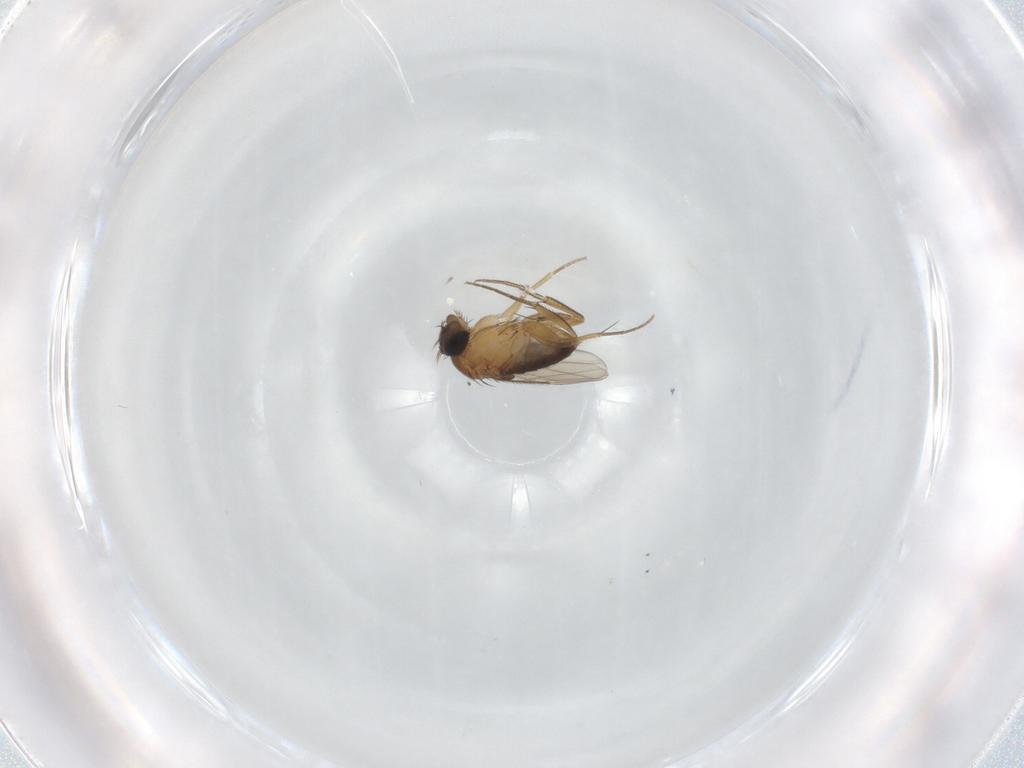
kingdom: Animalia
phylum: Arthropoda
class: Insecta
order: Diptera
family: Phoridae
